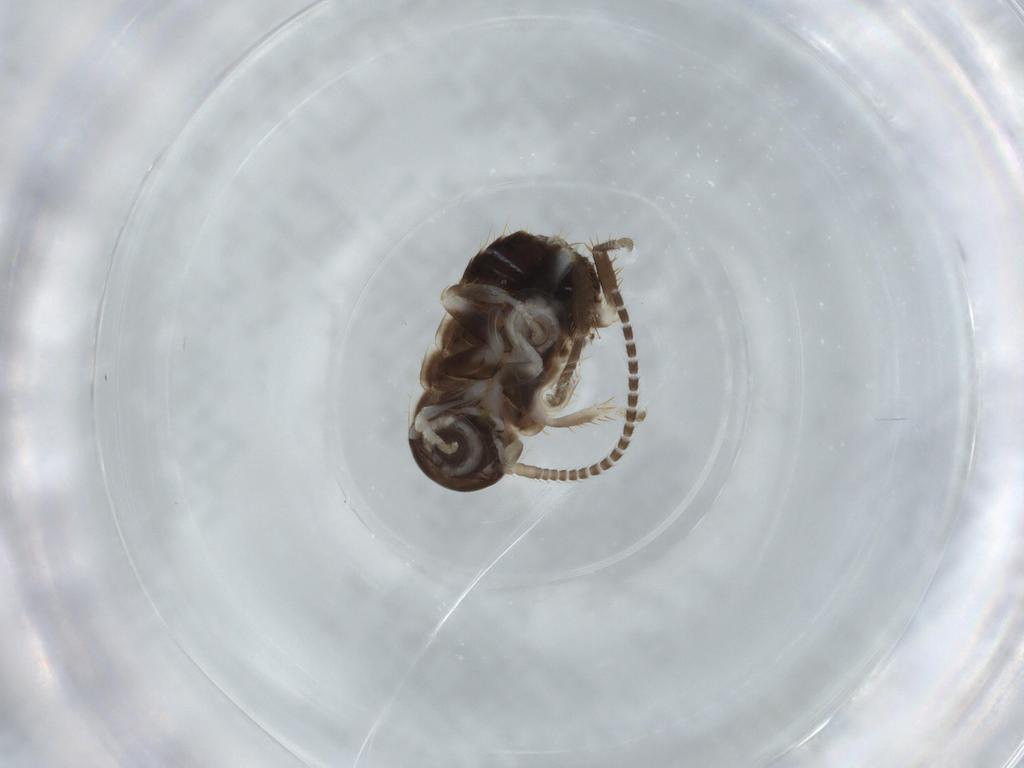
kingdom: Animalia
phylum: Arthropoda
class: Insecta
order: Blattodea
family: Ectobiidae
